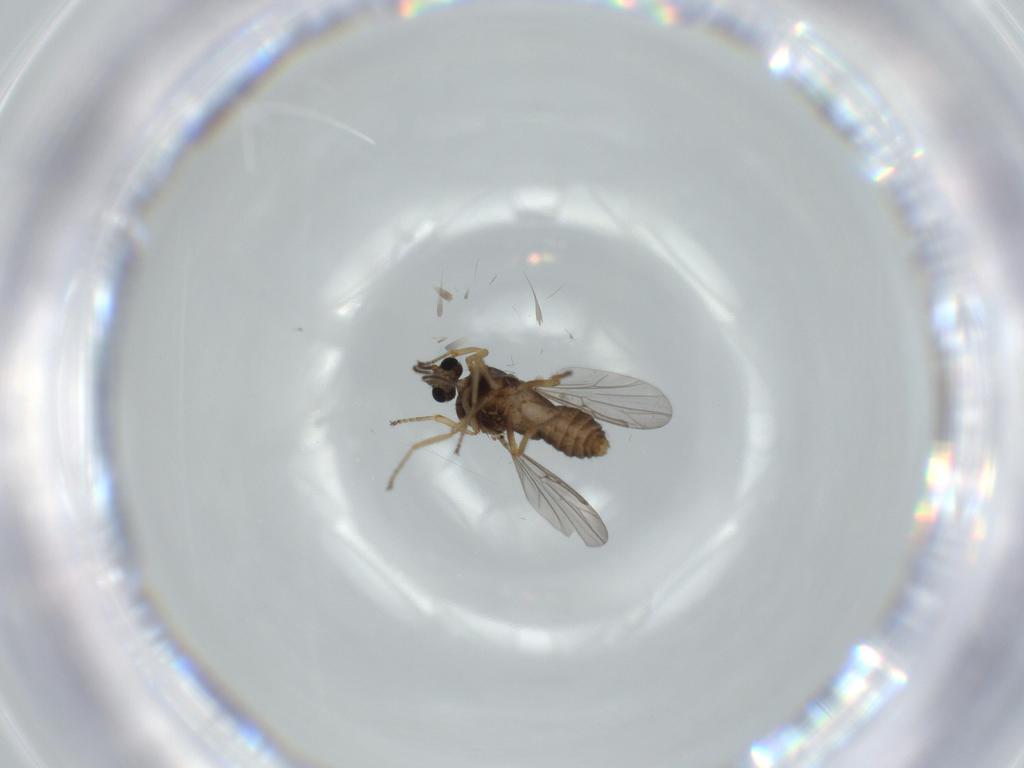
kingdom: Animalia
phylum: Arthropoda
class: Insecta
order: Diptera
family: Ceratopogonidae
